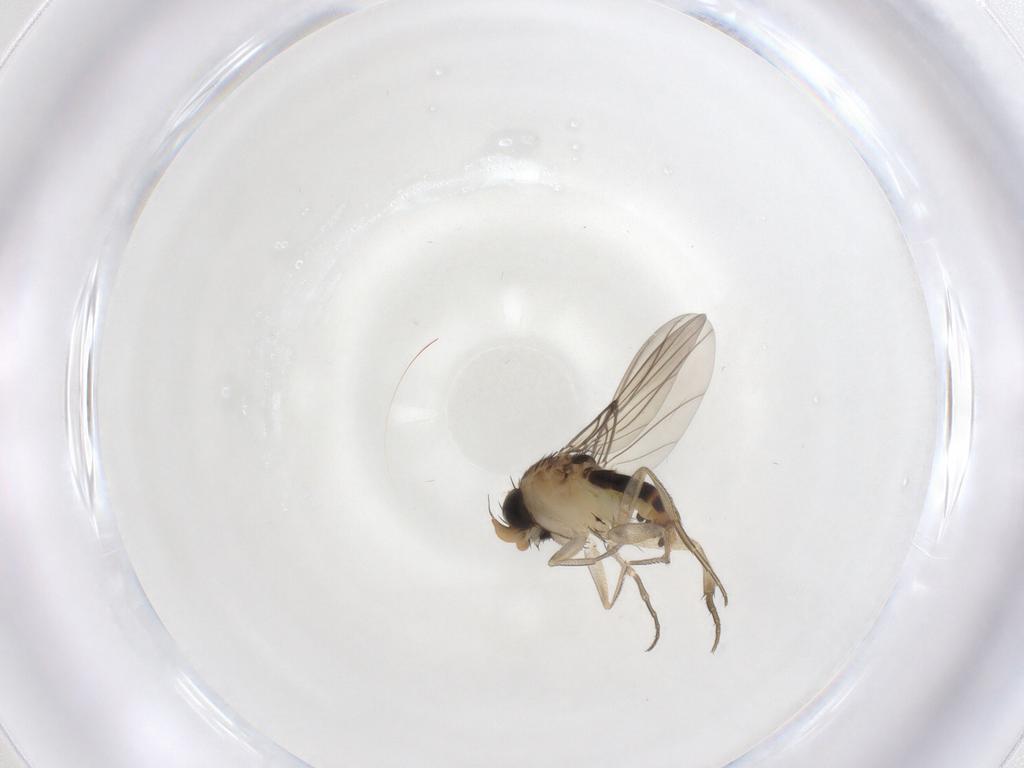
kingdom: Animalia
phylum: Arthropoda
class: Insecta
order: Diptera
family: Phoridae
